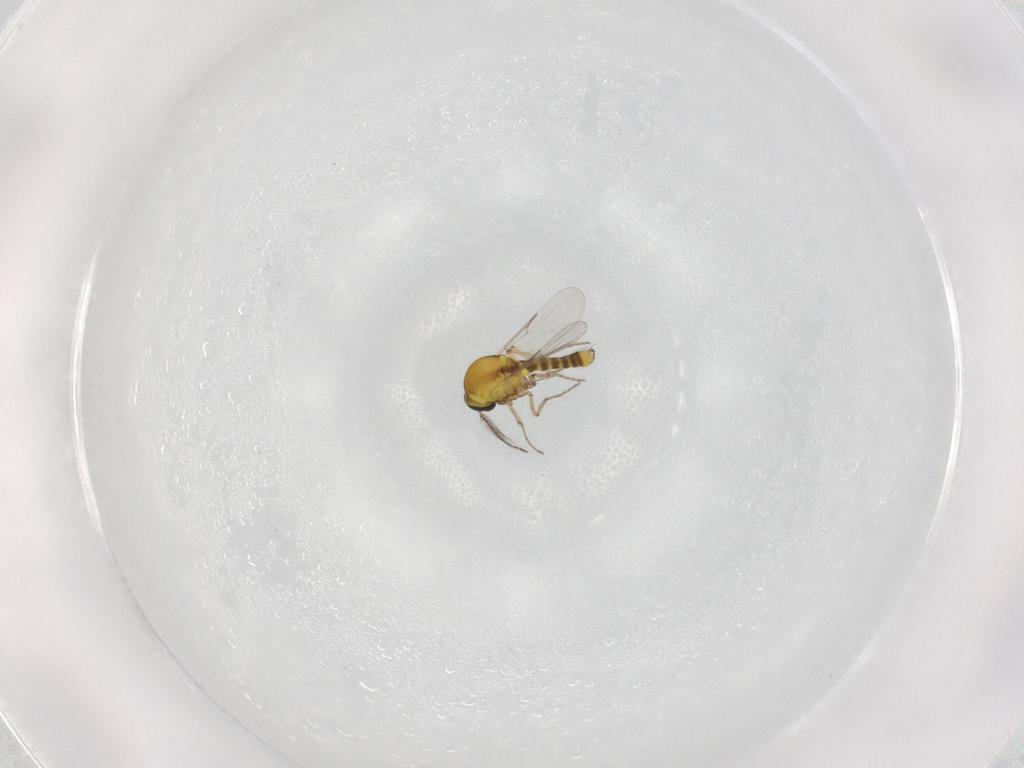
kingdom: Animalia
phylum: Arthropoda
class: Insecta
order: Diptera
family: Ceratopogonidae
